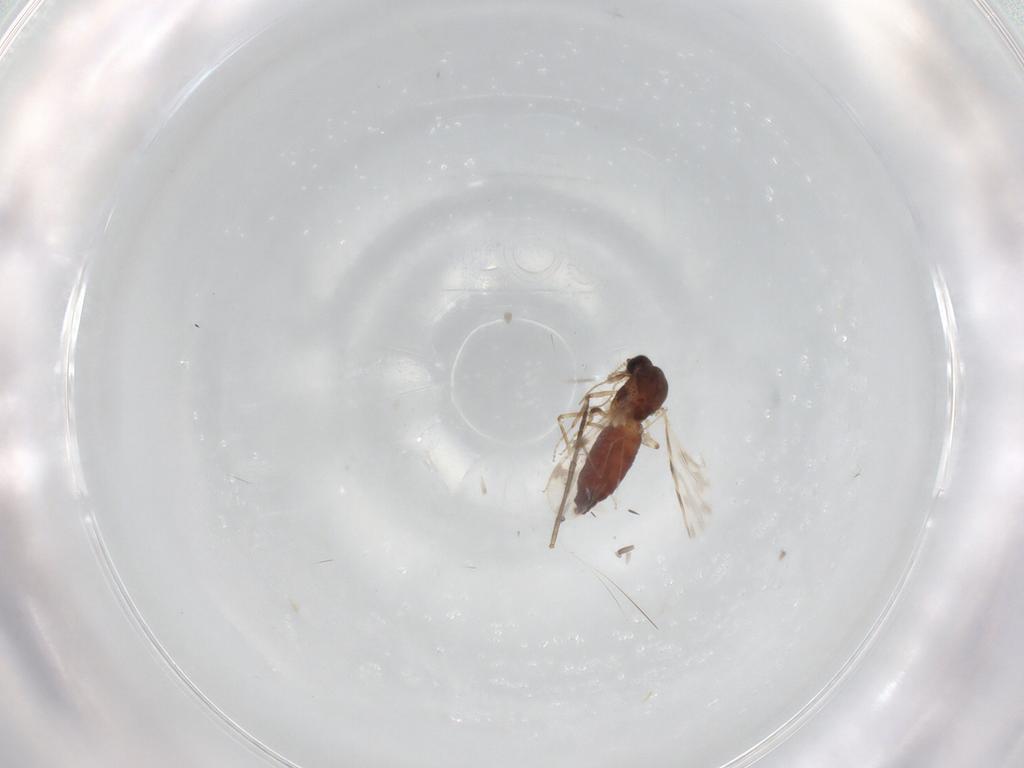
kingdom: Animalia
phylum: Arthropoda
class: Insecta
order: Diptera
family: Cecidomyiidae
